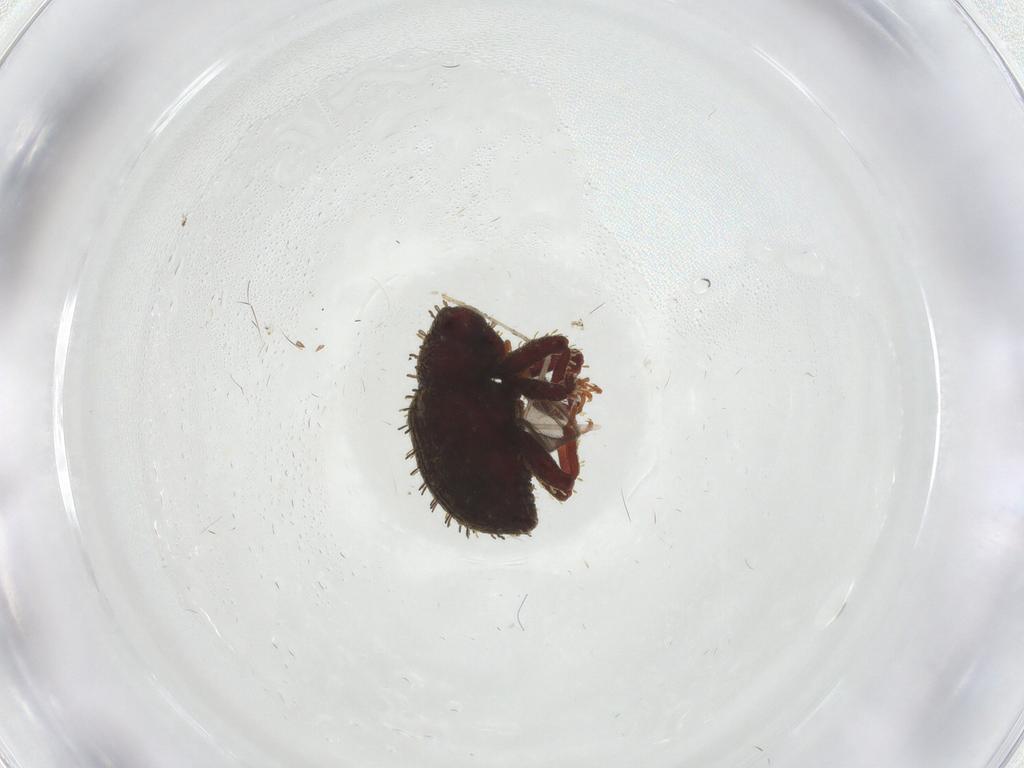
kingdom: Animalia
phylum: Arthropoda
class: Insecta
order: Coleoptera
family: Curculionidae
